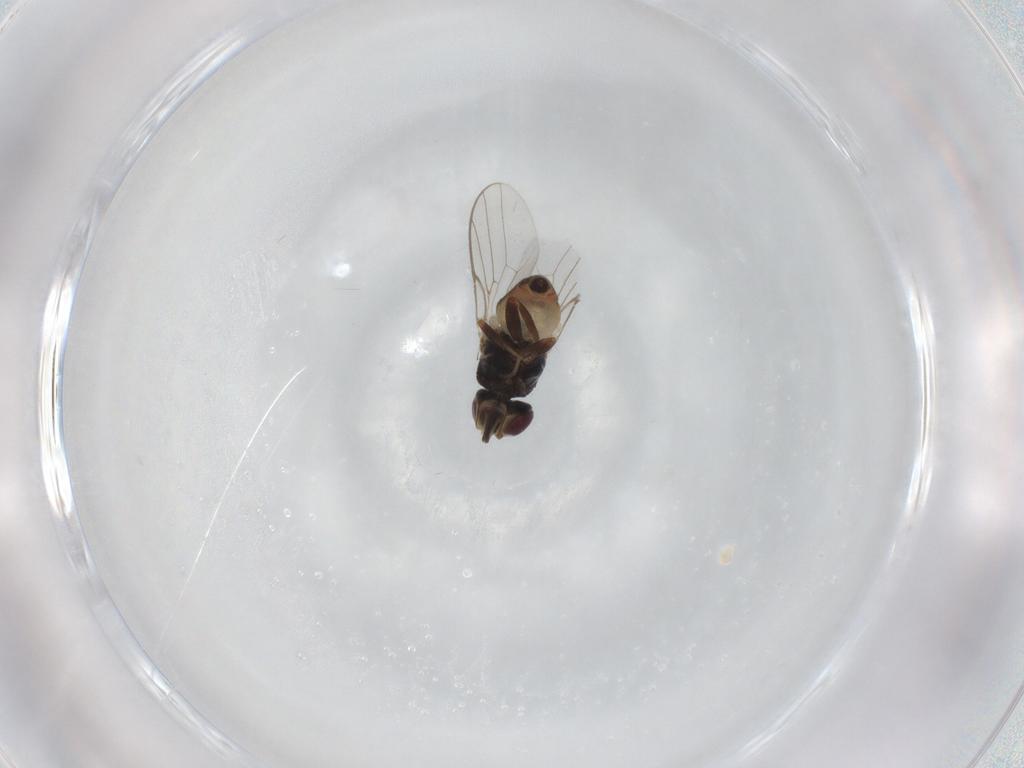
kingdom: Animalia
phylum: Arthropoda
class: Insecta
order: Diptera
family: Chloropidae
